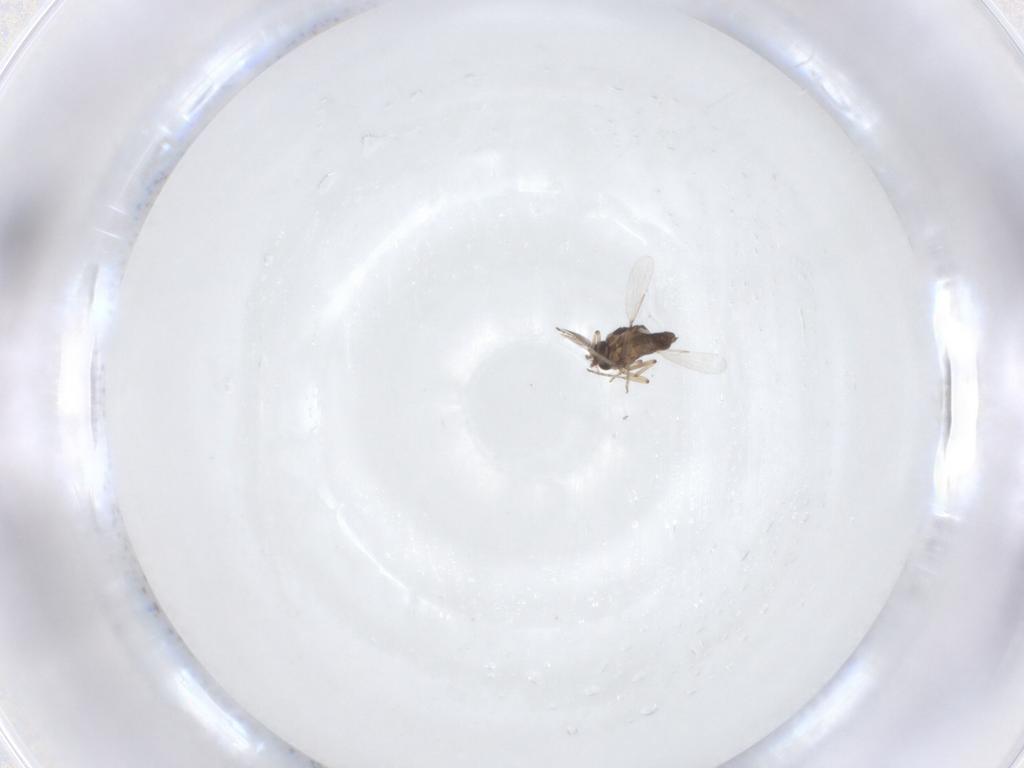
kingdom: Animalia
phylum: Arthropoda
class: Insecta
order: Diptera
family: Ceratopogonidae
